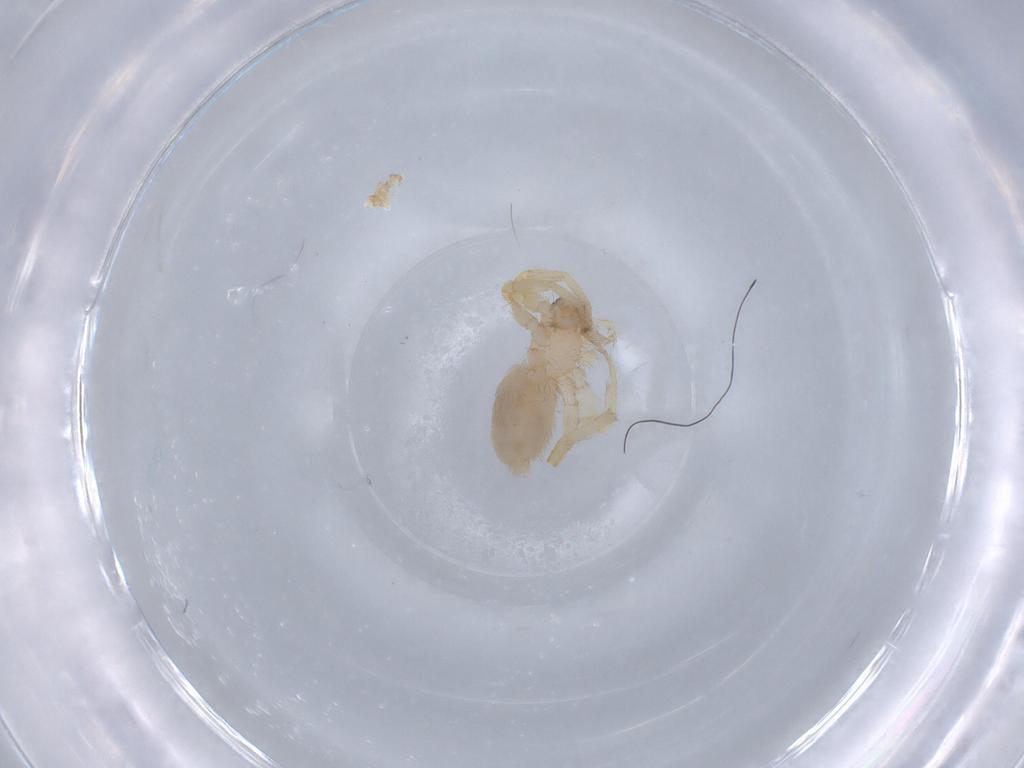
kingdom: Animalia
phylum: Arthropoda
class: Arachnida
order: Araneae
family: Oonopidae
